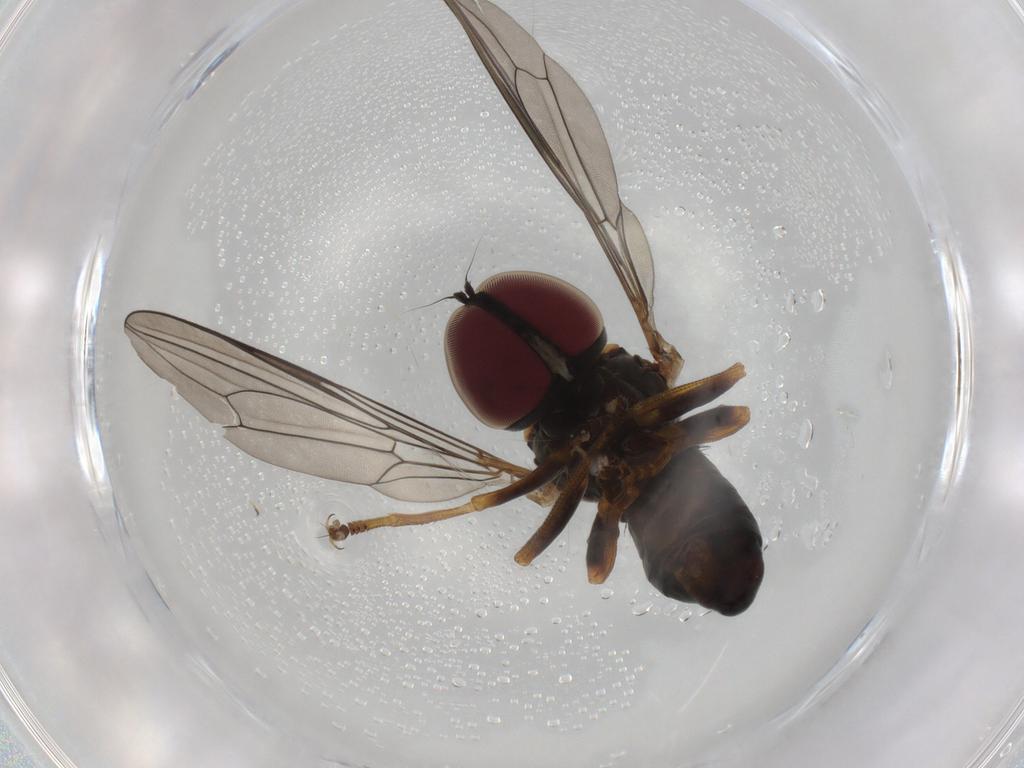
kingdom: Animalia
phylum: Arthropoda
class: Insecta
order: Diptera
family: Pipunculidae
